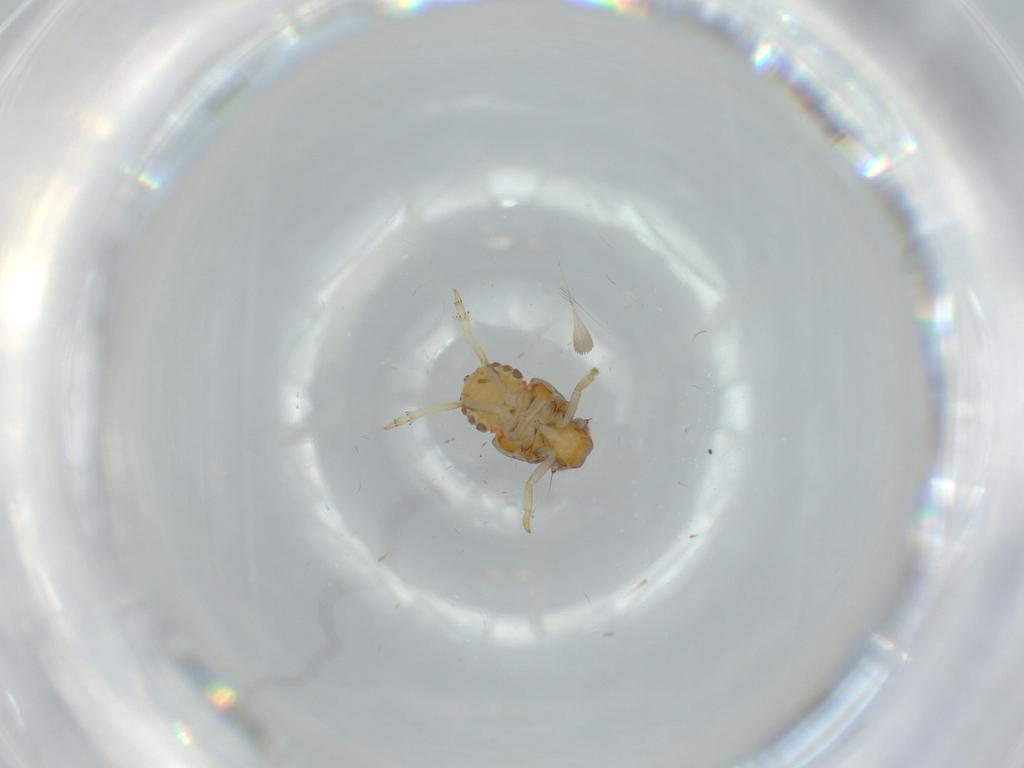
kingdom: Animalia
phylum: Arthropoda
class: Insecta
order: Hemiptera
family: Issidae
